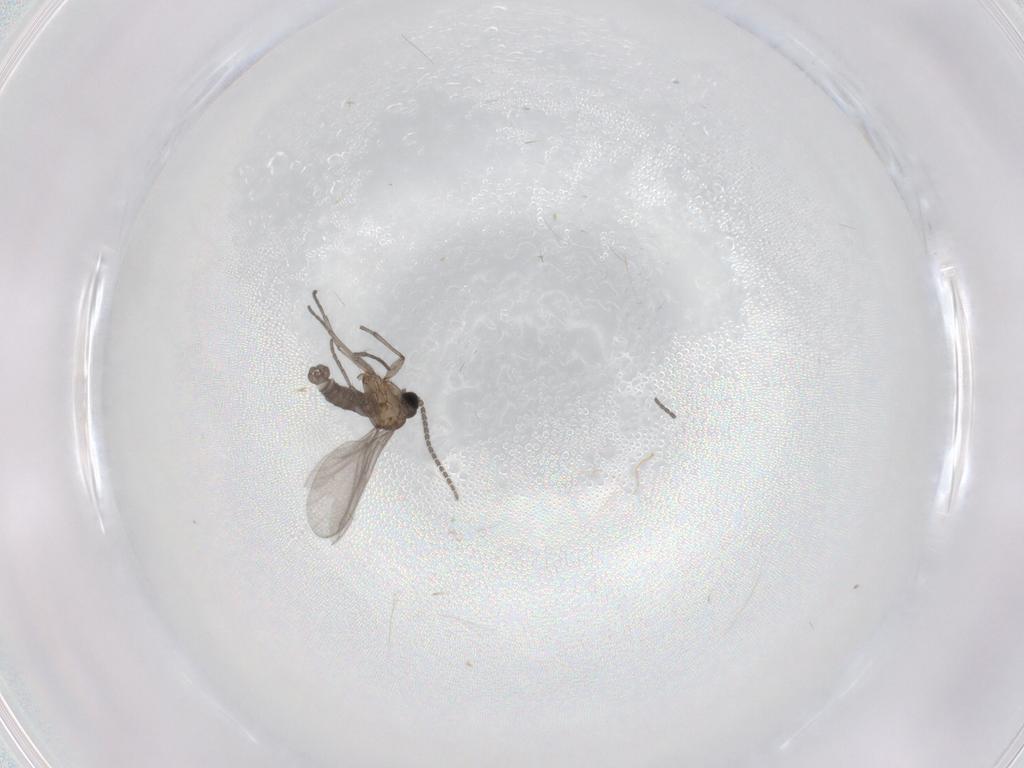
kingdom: Animalia
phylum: Arthropoda
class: Insecta
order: Diptera
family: Sciaridae
